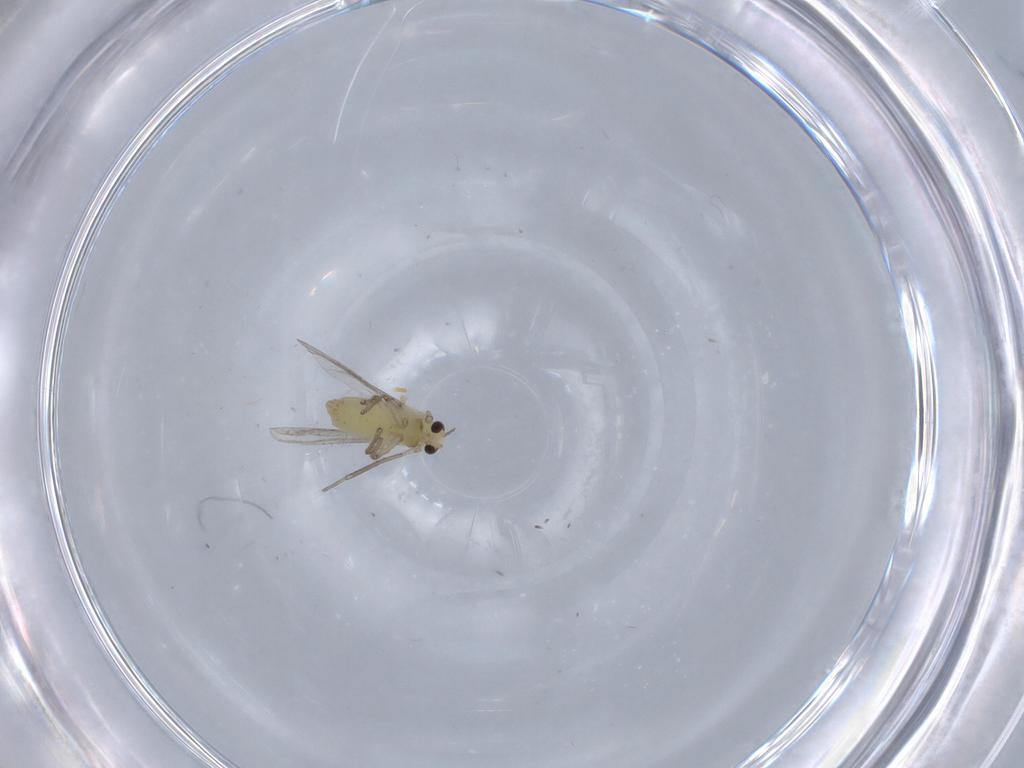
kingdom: Animalia
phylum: Arthropoda
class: Insecta
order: Diptera
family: Chironomidae
